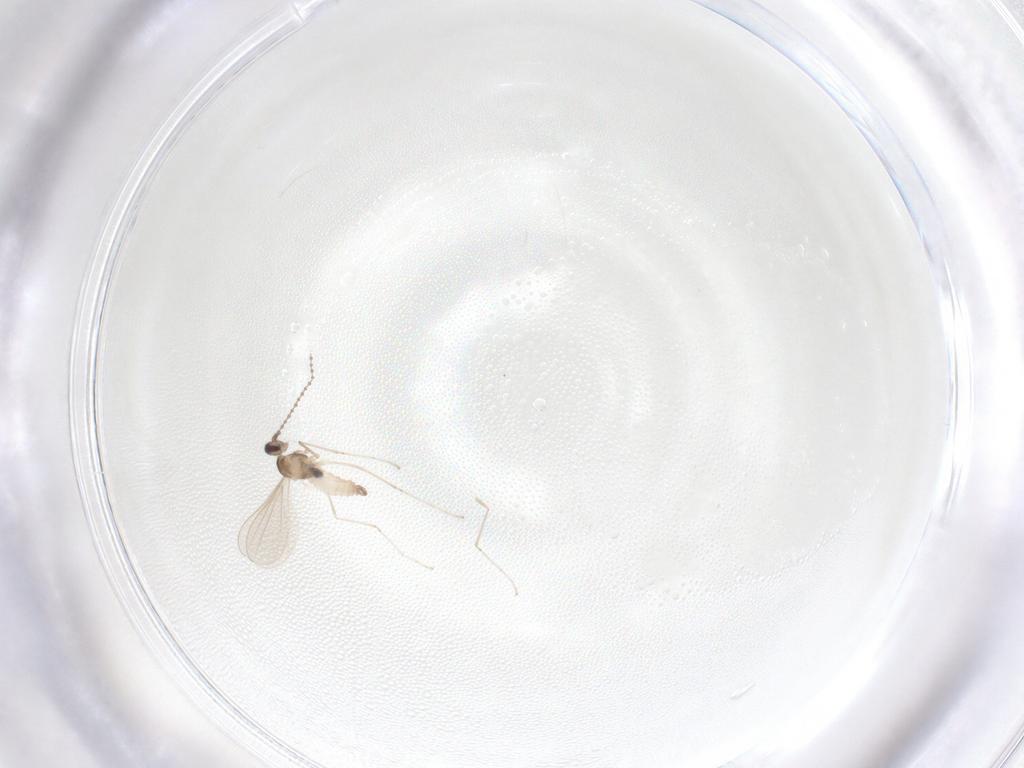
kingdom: Animalia
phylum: Arthropoda
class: Insecta
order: Diptera
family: Cecidomyiidae
